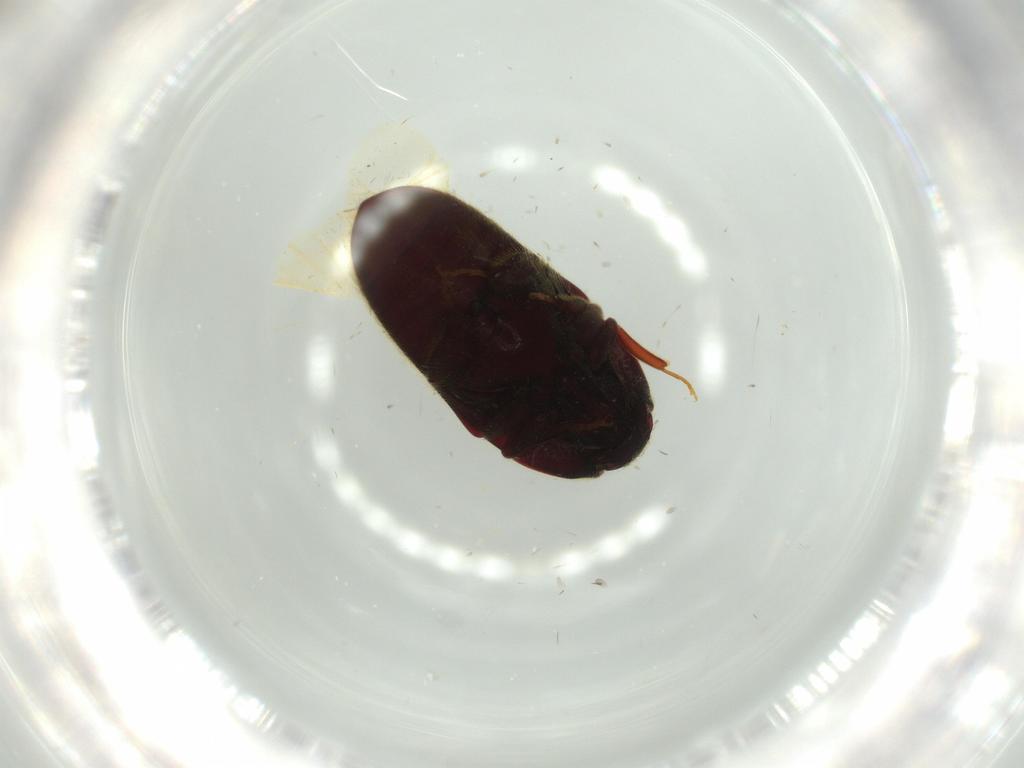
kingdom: Animalia
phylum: Arthropoda
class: Insecta
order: Coleoptera
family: Throscidae
